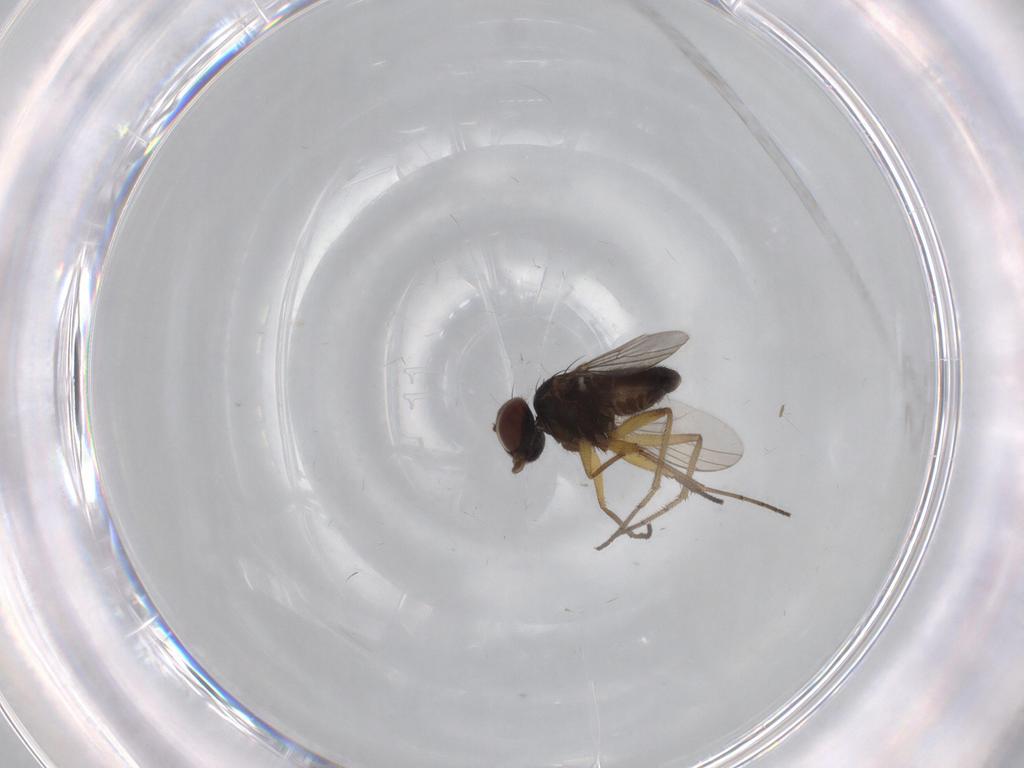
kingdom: Animalia
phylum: Arthropoda
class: Insecta
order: Diptera
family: Dolichopodidae
